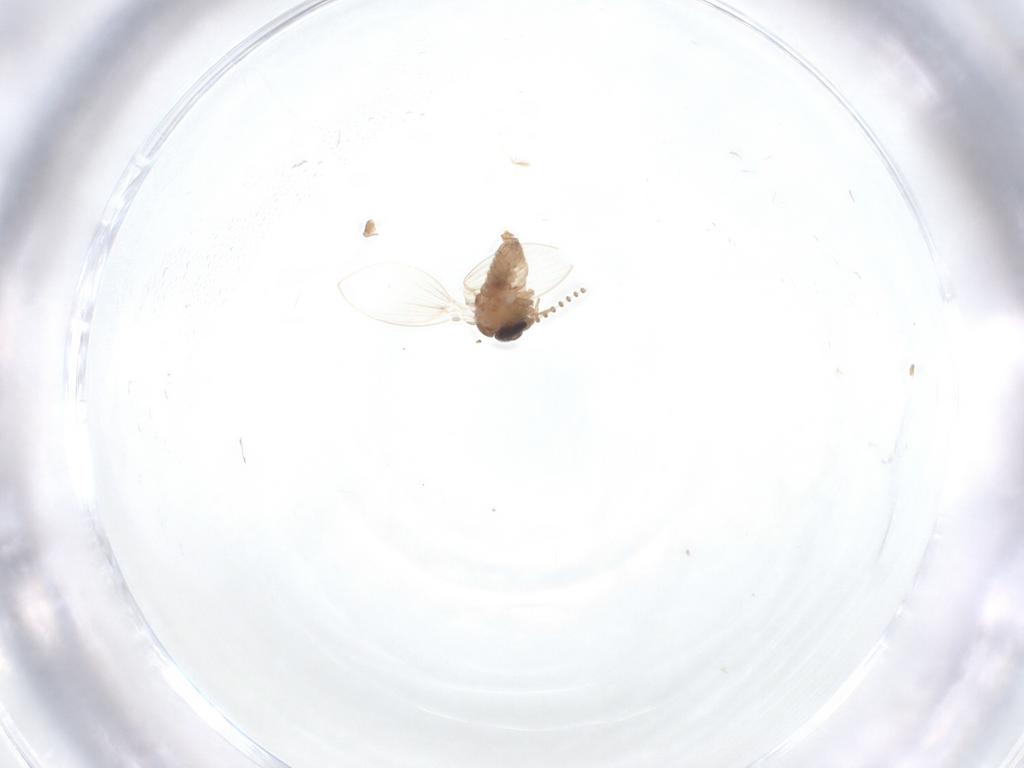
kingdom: Animalia
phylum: Arthropoda
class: Insecta
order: Diptera
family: Psychodidae
